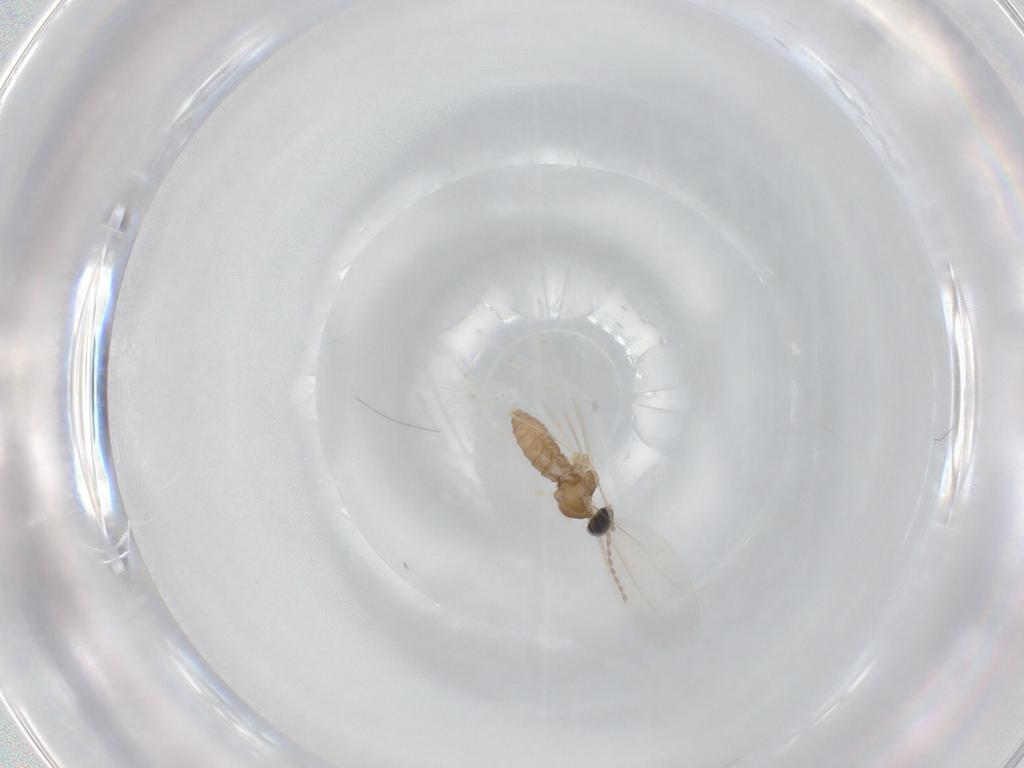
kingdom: Animalia
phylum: Arthropoda
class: Insecta
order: Diptera
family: Cecidomyiidae
